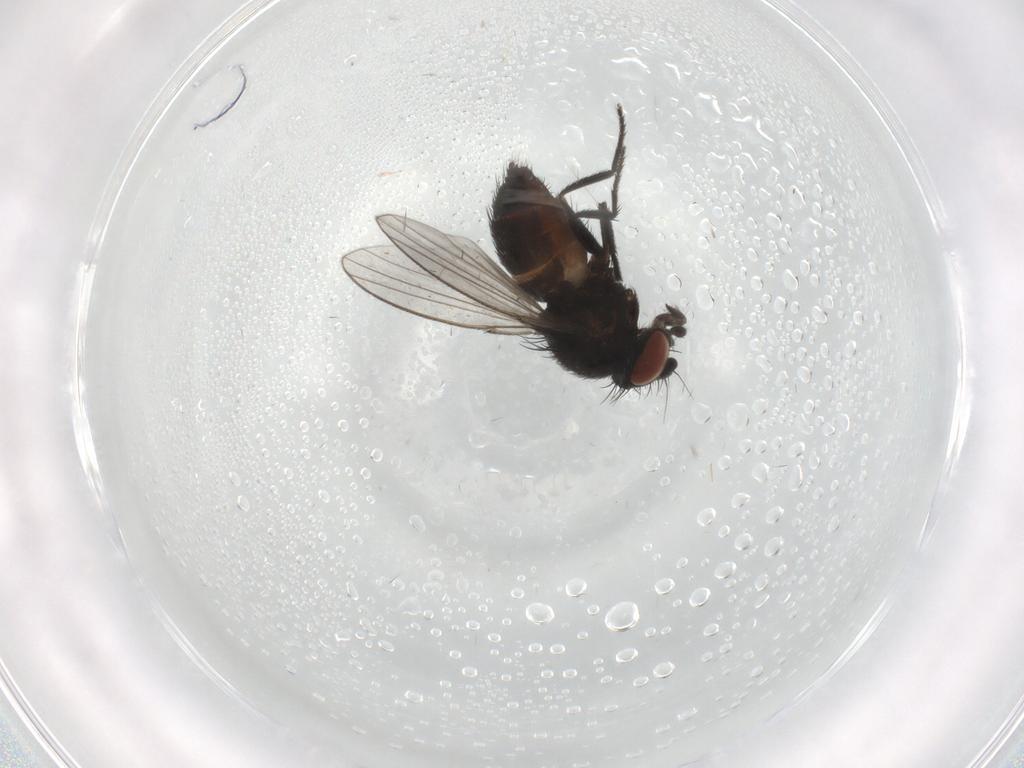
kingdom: Animalia
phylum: Arthropoda
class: Insecta
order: Diptera
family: Milichiidae
